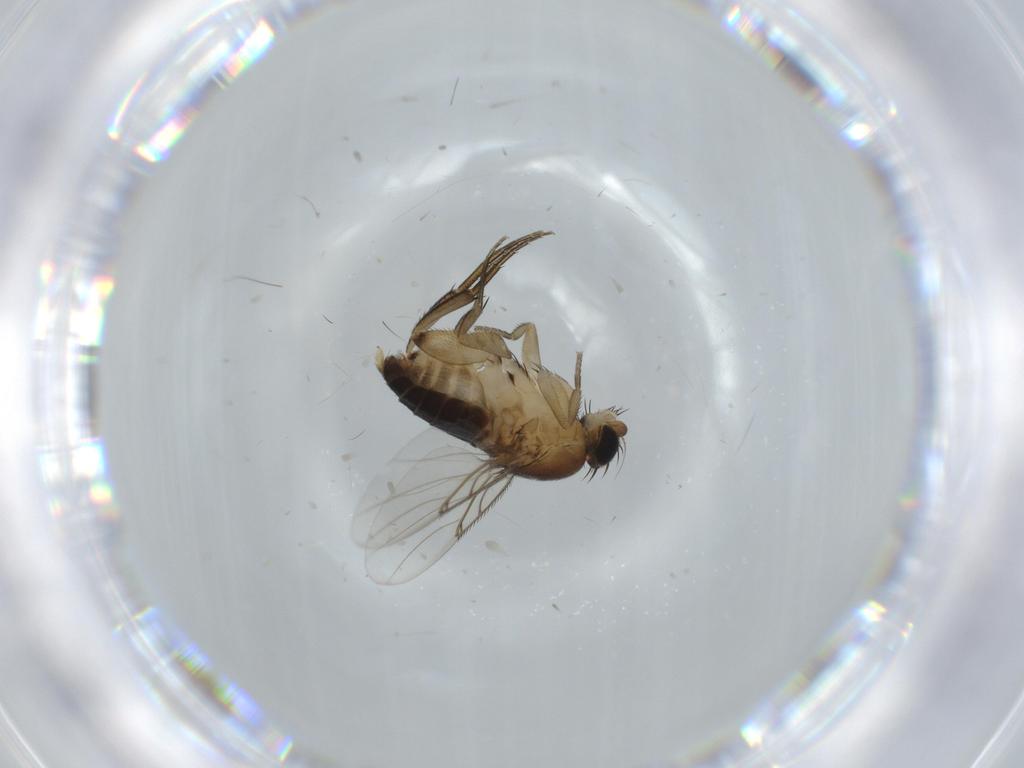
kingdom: Animalia
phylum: Arthropoda
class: Insecta
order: Diptera
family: Phoridae
